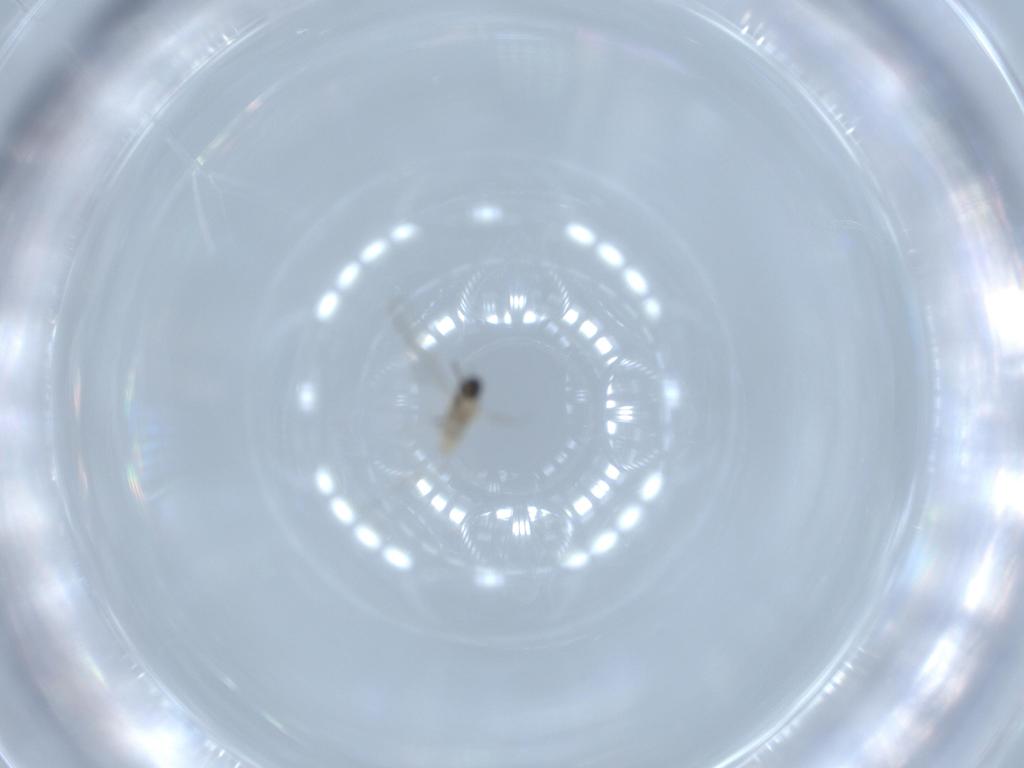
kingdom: Animalia
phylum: Arthropoda
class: Insecta
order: Diptera
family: Cecidomyiidae
